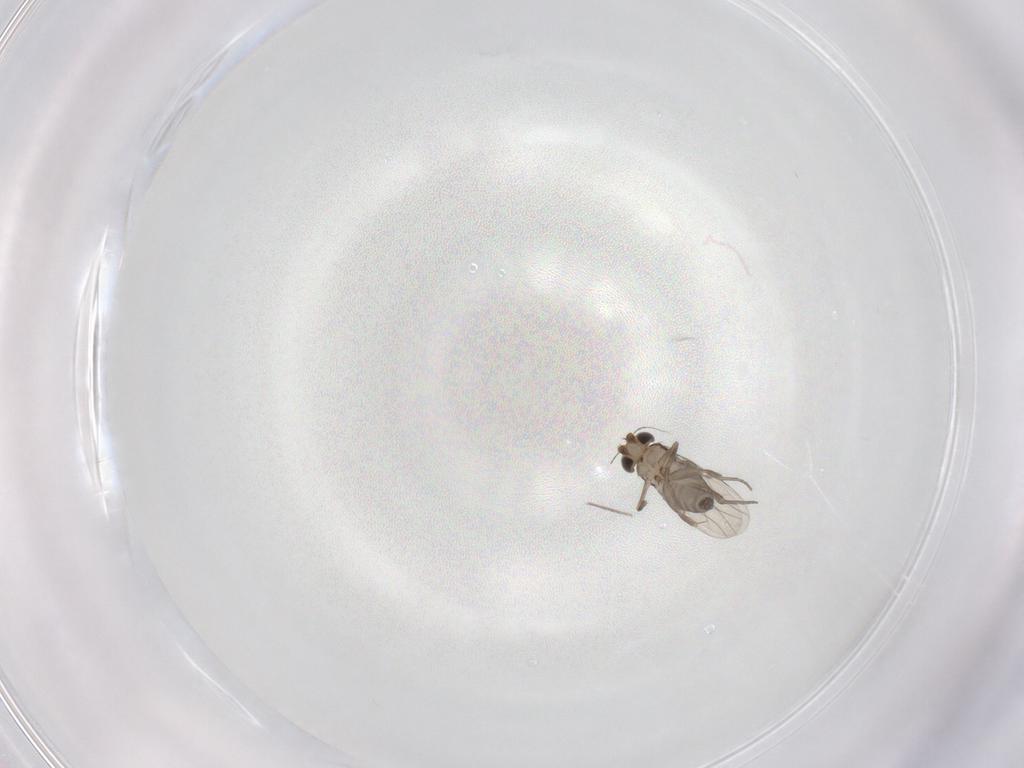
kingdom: Animalia
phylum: Arthropoda
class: Insecta
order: Diptera
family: Phoridae
